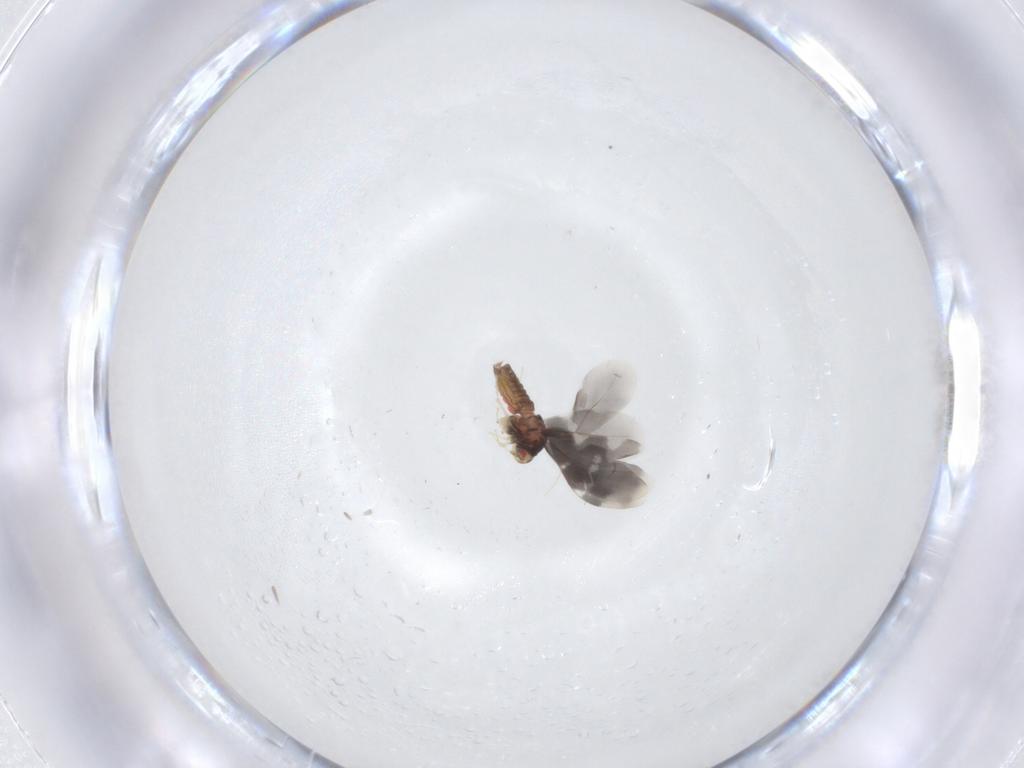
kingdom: Animalia
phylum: Arthropoda
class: Insecta
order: Hemiptera
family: Aleyrodidae
